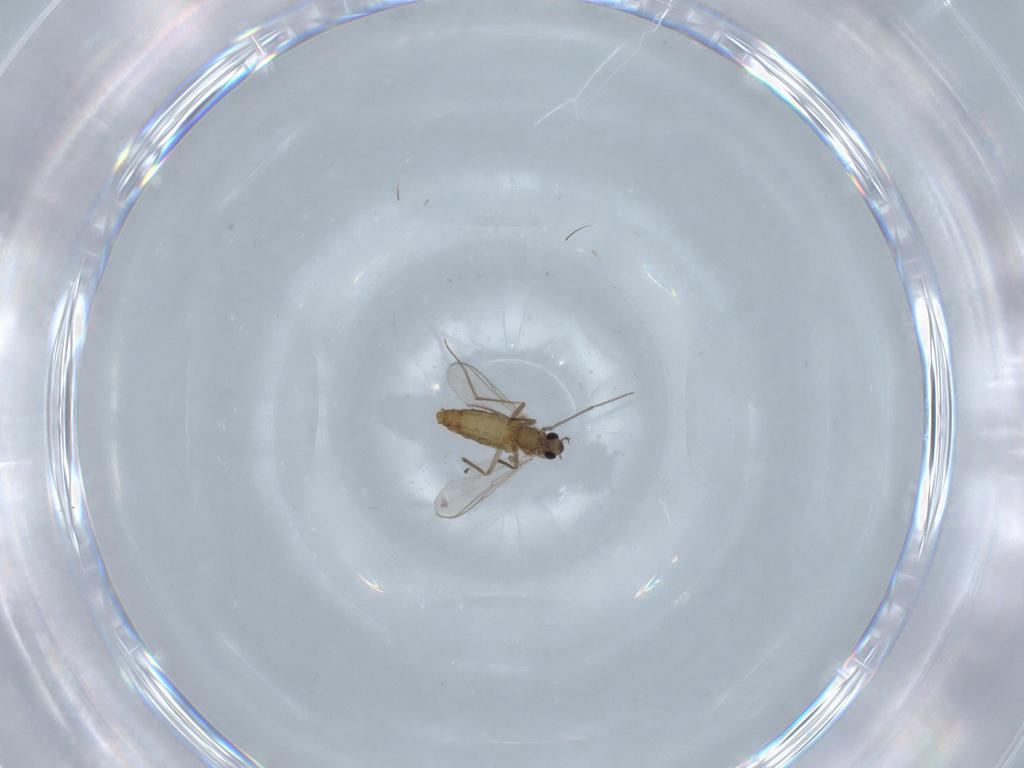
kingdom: Animalia
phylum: Arthropoda
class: Insecta
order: Diptera
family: Chironomidae
